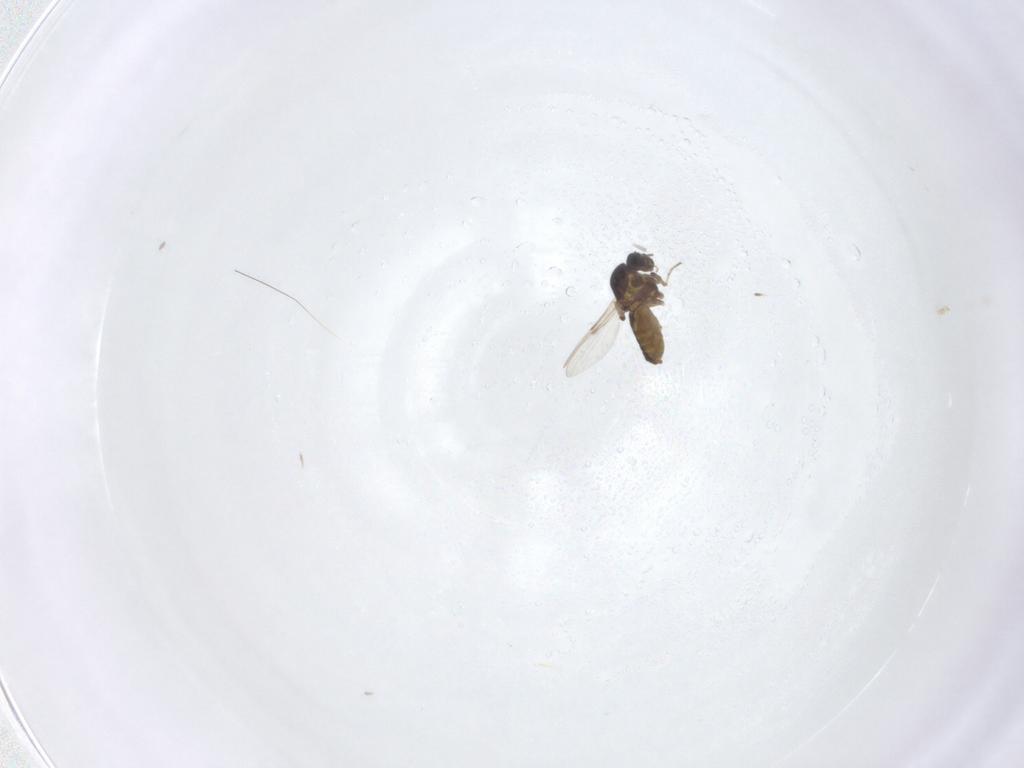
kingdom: Animalia
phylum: Arthropoda
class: Insecta
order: Diptera
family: Ceratopogonidae
